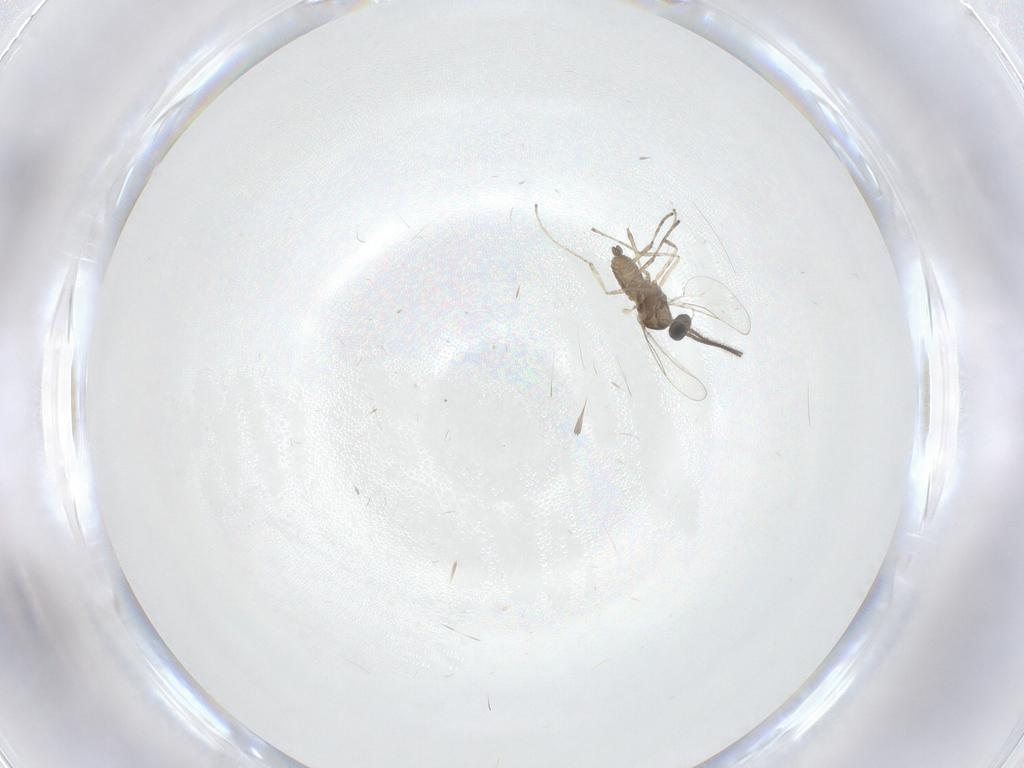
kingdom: Animalia
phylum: Arthropoda
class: Insecta
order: Diptera
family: Cecidomyiidae
